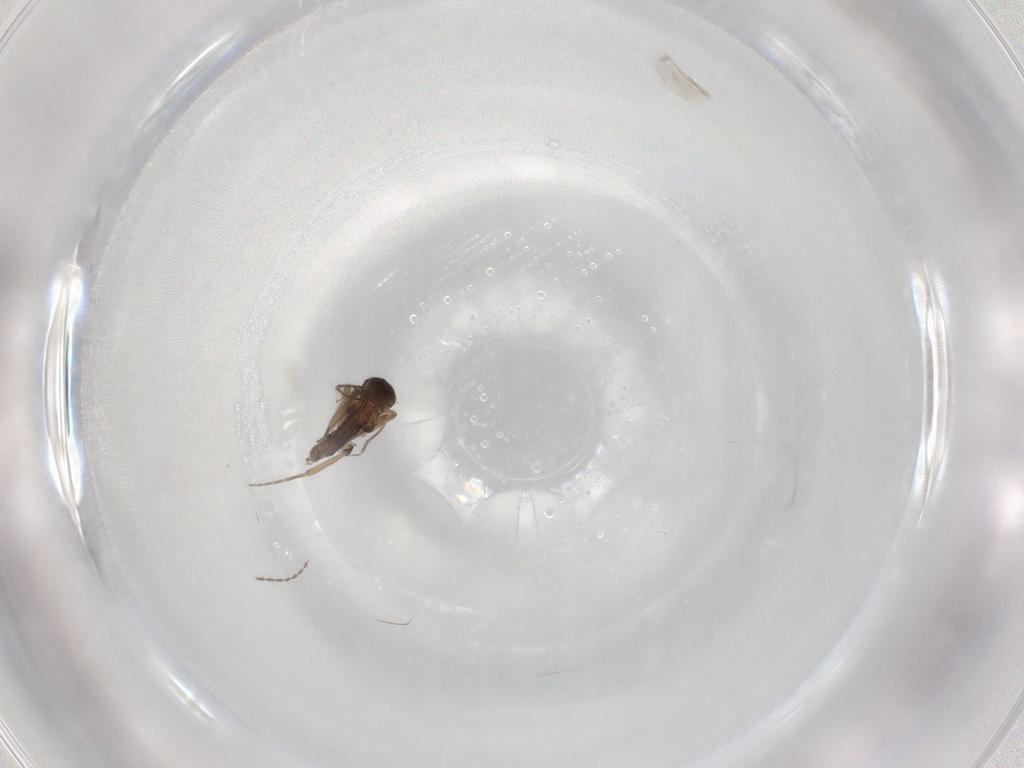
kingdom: Animalia
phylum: Arthropoda
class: Insecta
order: Diptera
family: Phoridae
